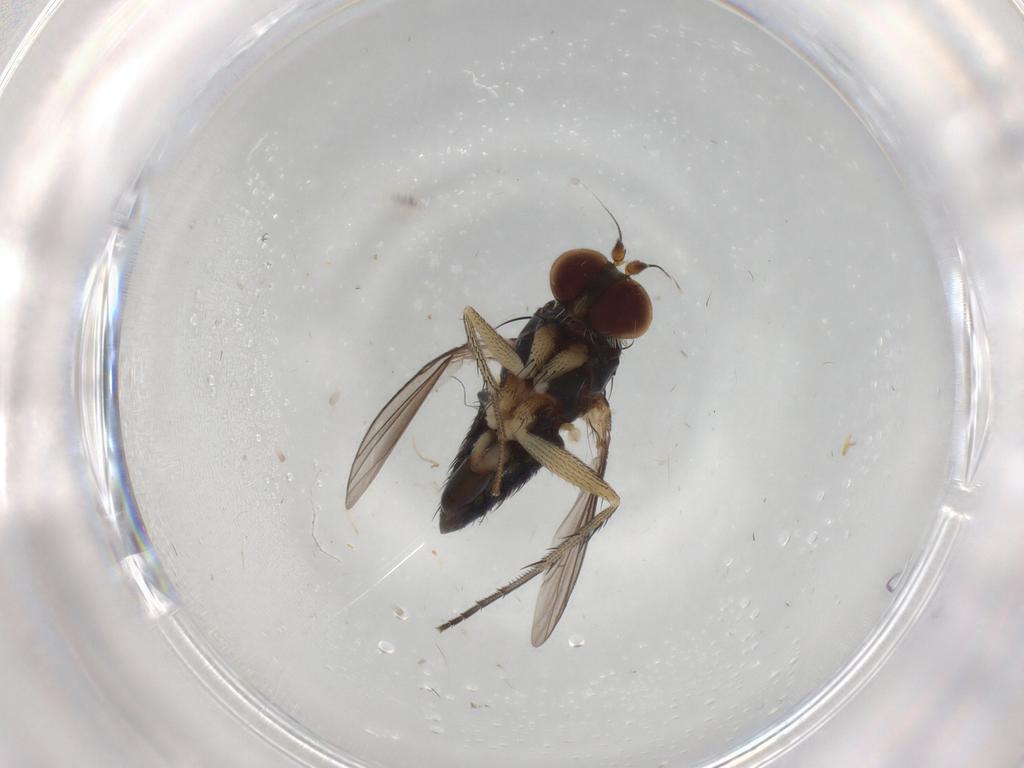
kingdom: Animalia
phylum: Arthropoda
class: Insecta
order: Diptera
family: Dolichopodidae
